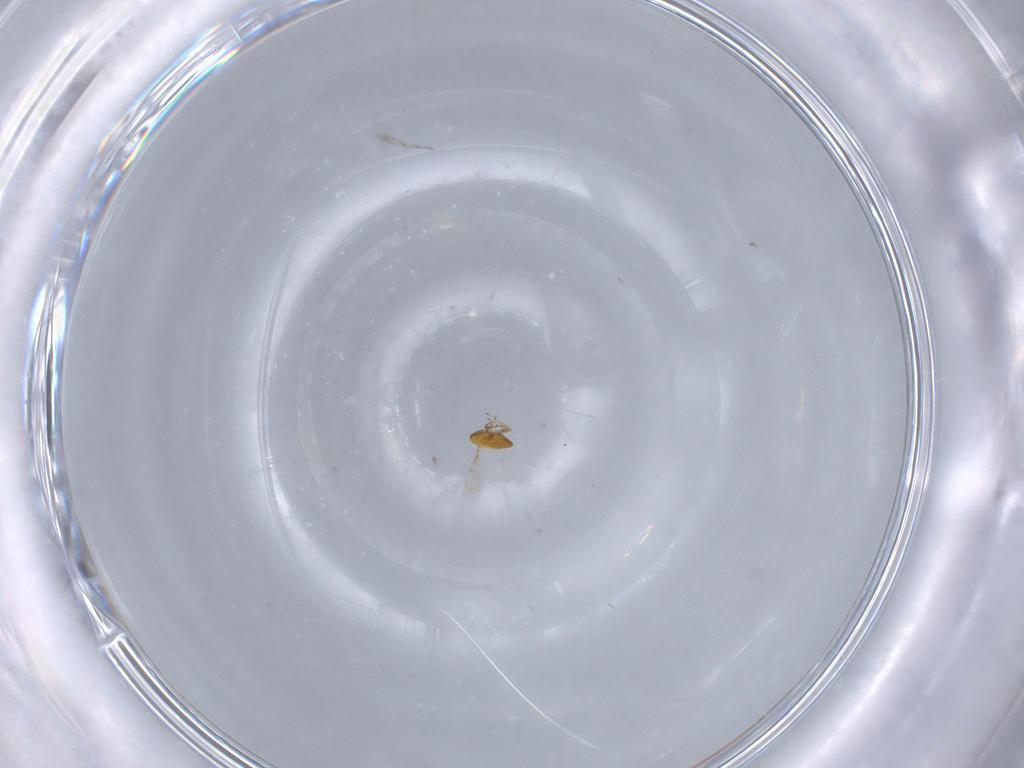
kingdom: Animalia
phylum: Arthropoda
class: Insecta
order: Hymenoptera
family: Trichogrammatidae
